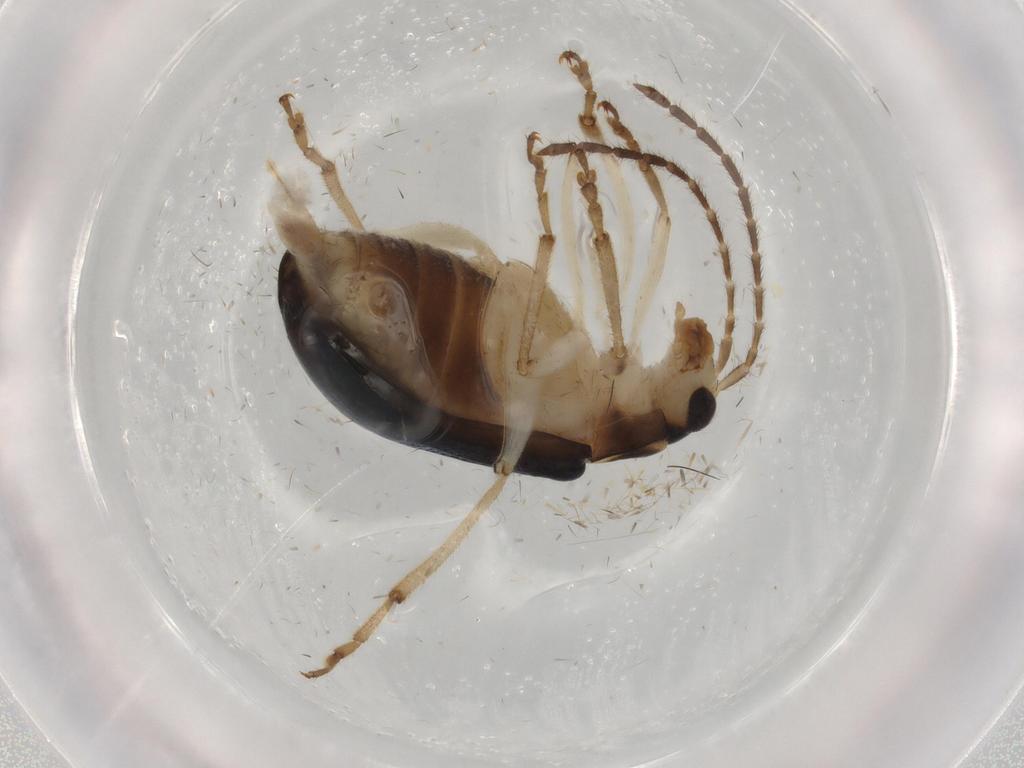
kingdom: Animalia
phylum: Arthropoda
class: Insecta
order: Coleoptera
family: Chrysomelidae
